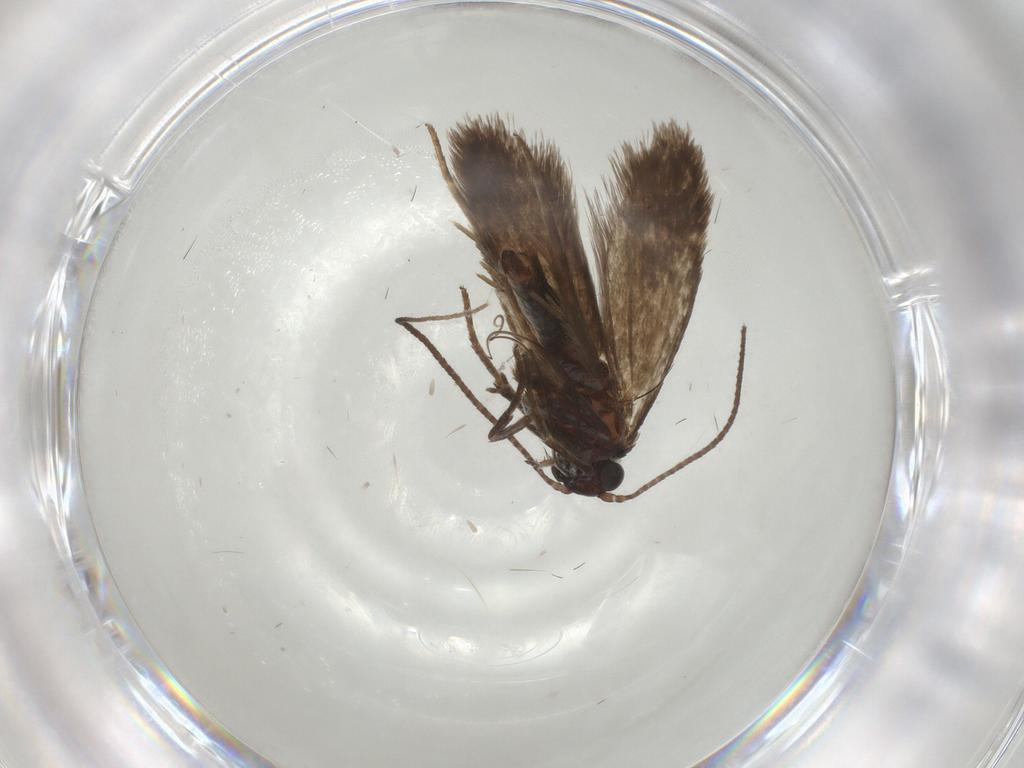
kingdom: Animalia
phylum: Arthropoda
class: Insecta
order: Lepidoptera
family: Adelidae
